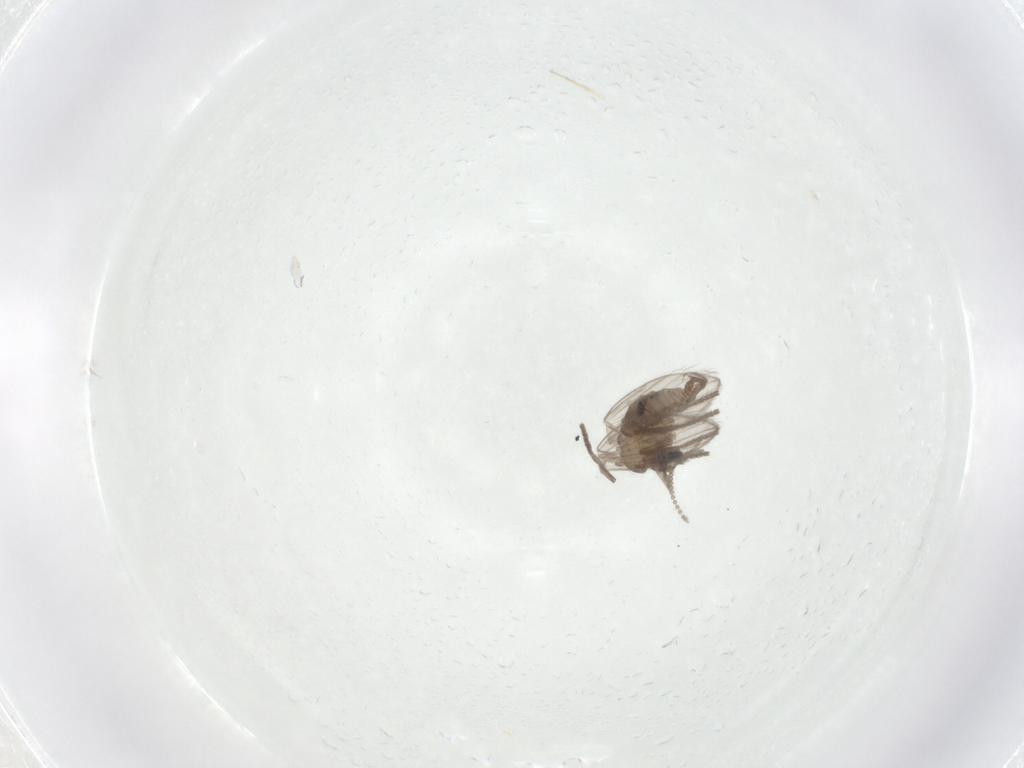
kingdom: Animalia
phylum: Arthropoda
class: Insecta
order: Diptera
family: Psychodidae
